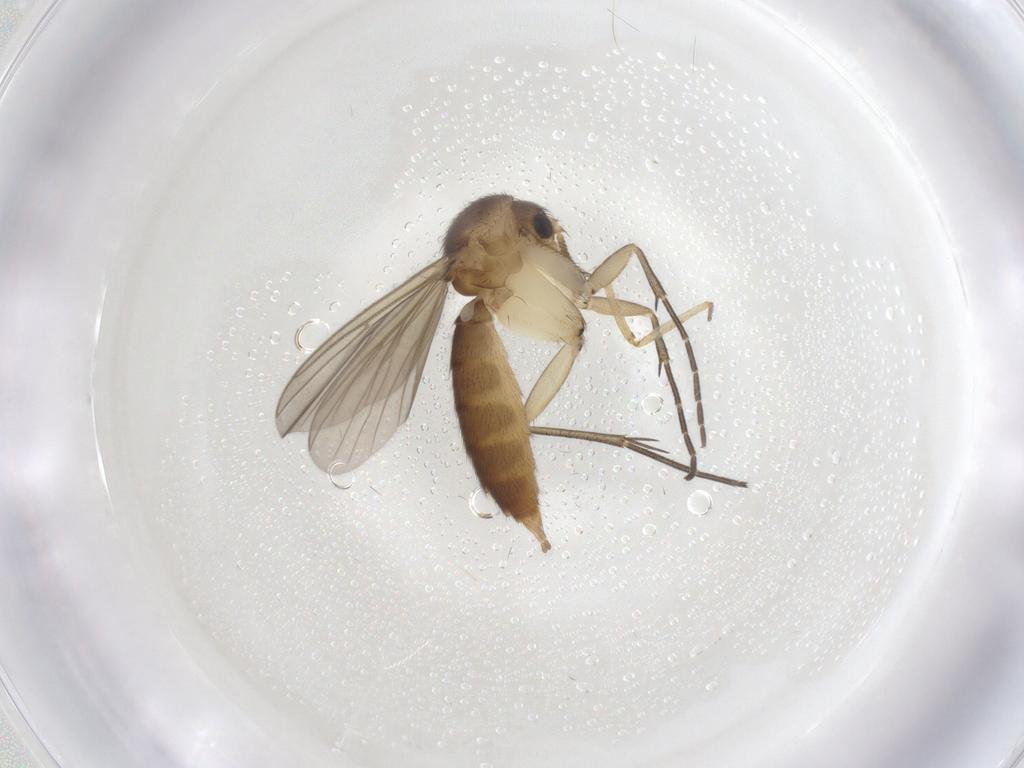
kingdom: Animalia
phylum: Arthropoda
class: Insecta
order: Diptera
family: Mycetophilidae
